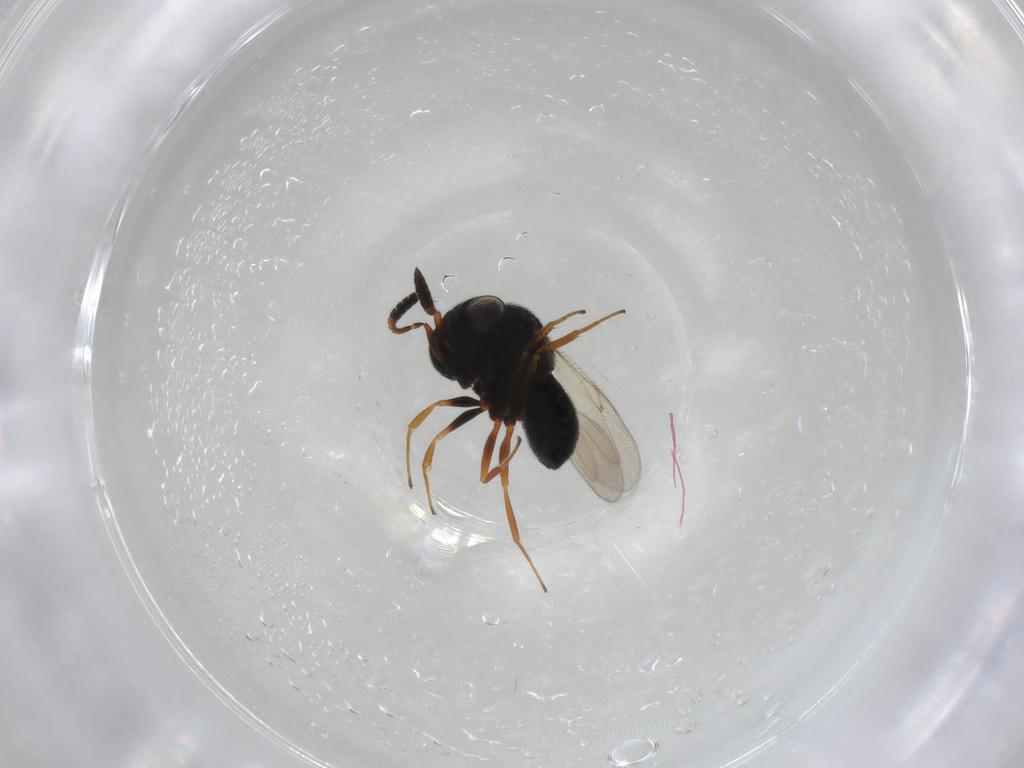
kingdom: Animalia
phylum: Arthropoda
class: Insecta
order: Hymenoptera
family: Scelionidae
